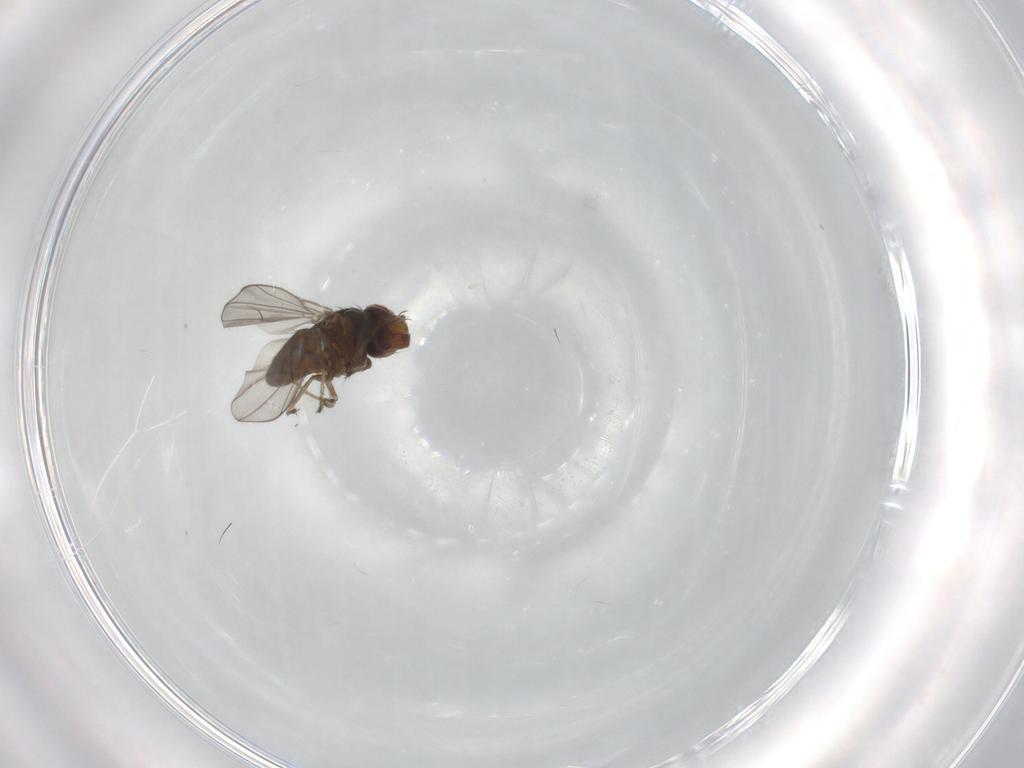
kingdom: Animalia
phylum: Arthropoda
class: Insecta
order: Diptera
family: Ephydridae
